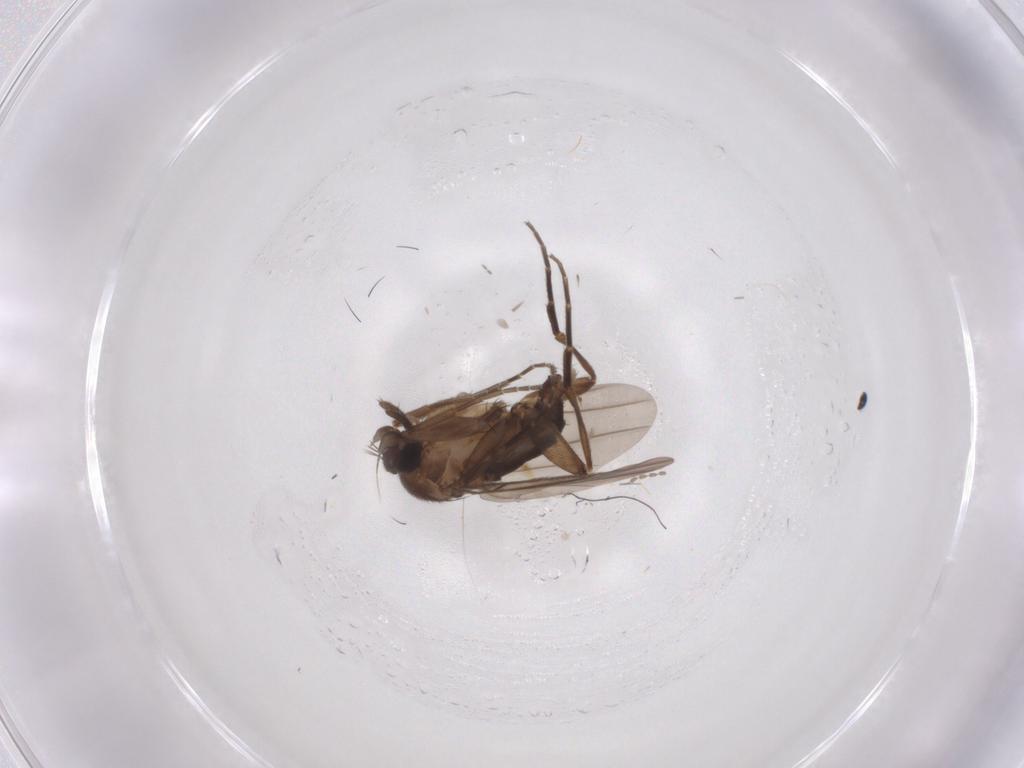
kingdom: Animalia
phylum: Arthropoda
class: Insecta
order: Diptera
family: Phoridae
